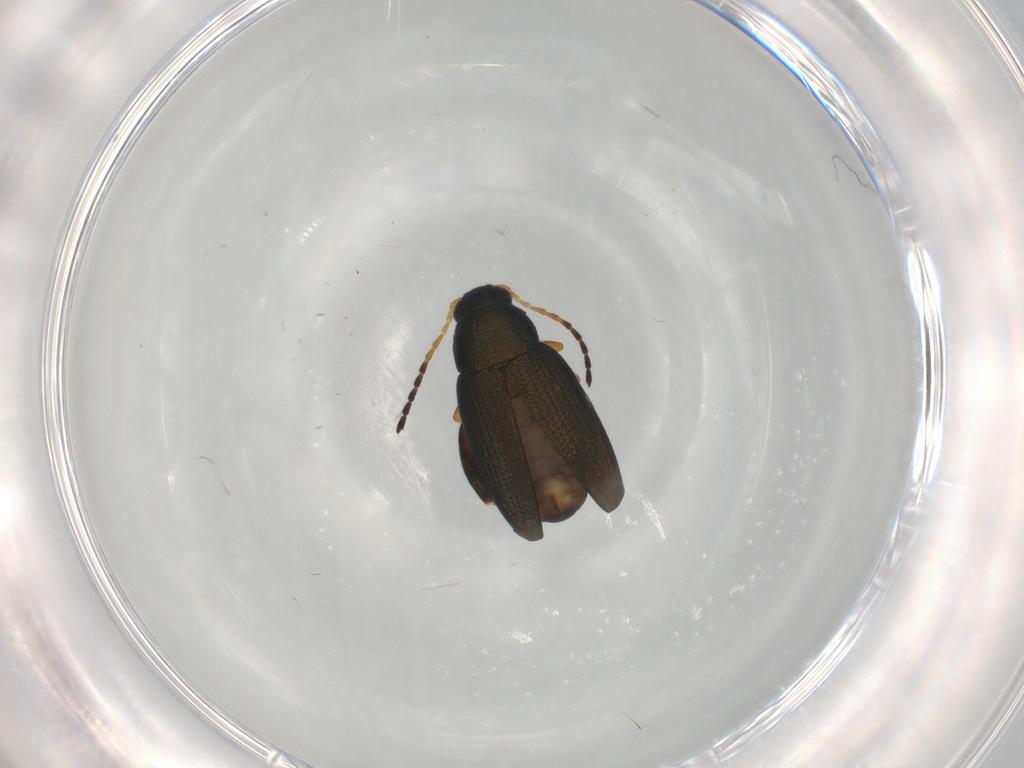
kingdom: Animalia
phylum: Arthropoda
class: Insecta
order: Coleoptera
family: Chrysomelidae
